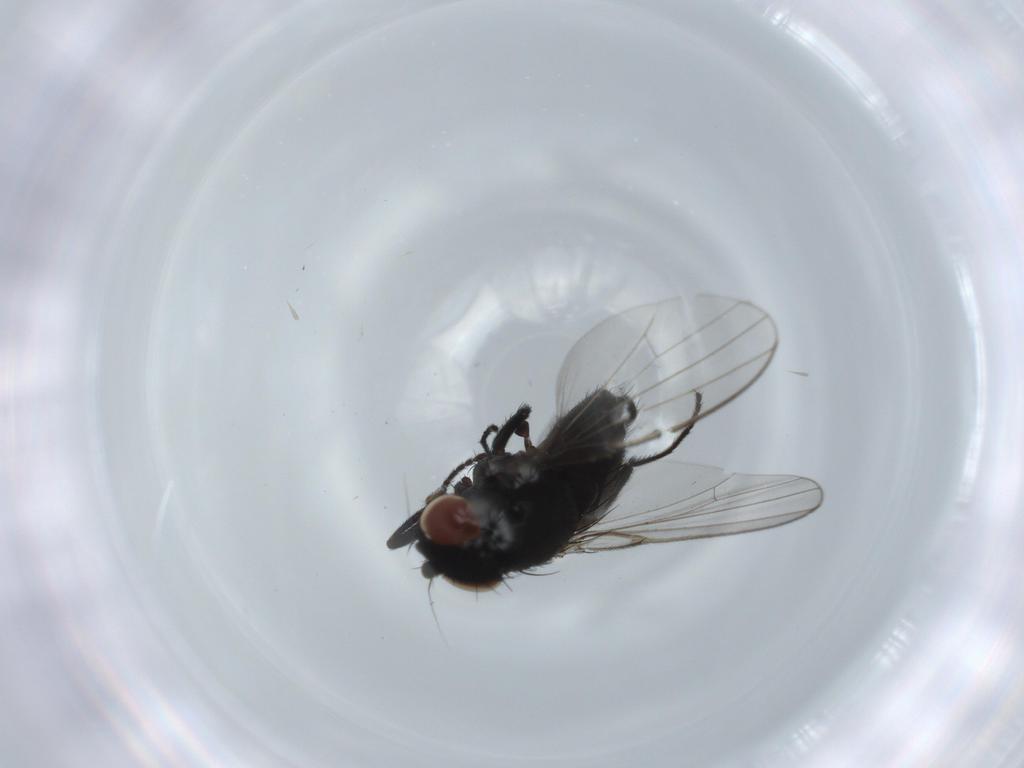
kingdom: Animalia
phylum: Arthropoda
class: Insecta
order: Diptera
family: Milichiidae
